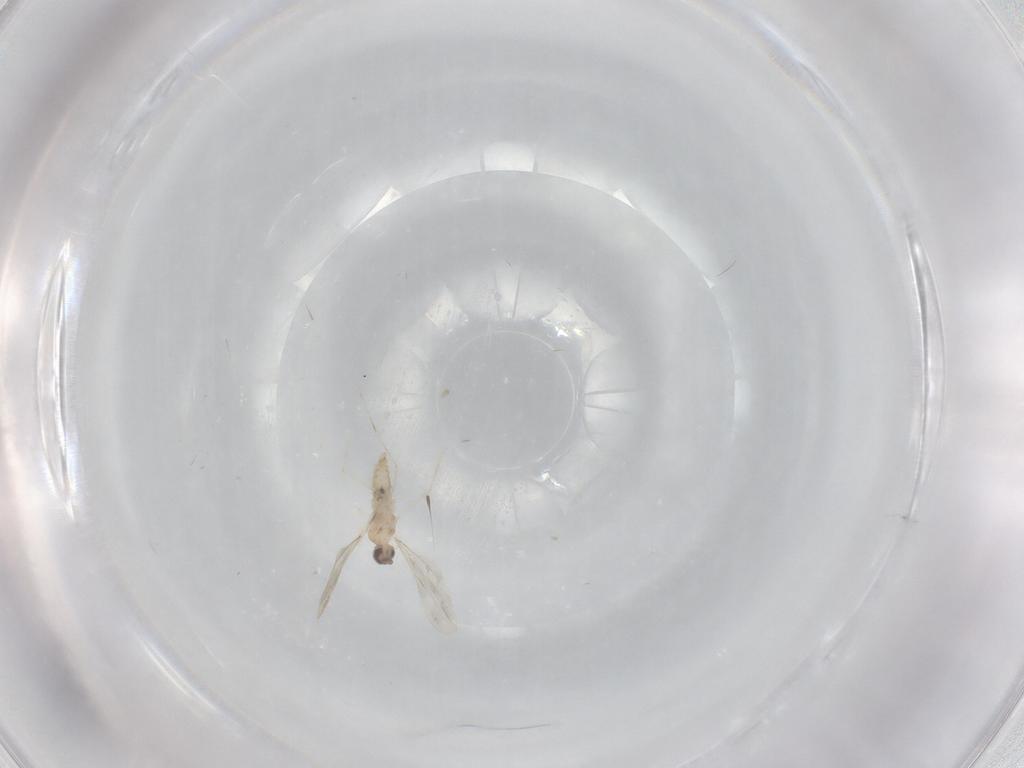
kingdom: Animalia
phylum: Arthropoda
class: Insecta
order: Diptera
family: Cecidomyiidae
